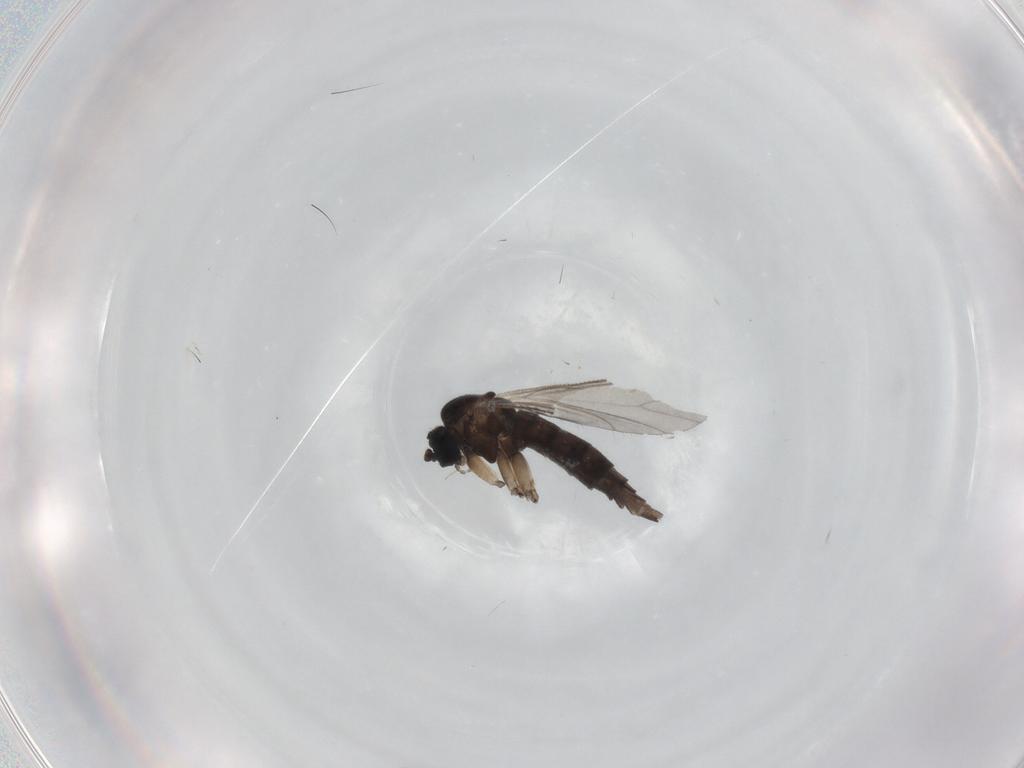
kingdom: Animalia
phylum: Arthropoda
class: Insecta
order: Diptera
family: Sciaridae
